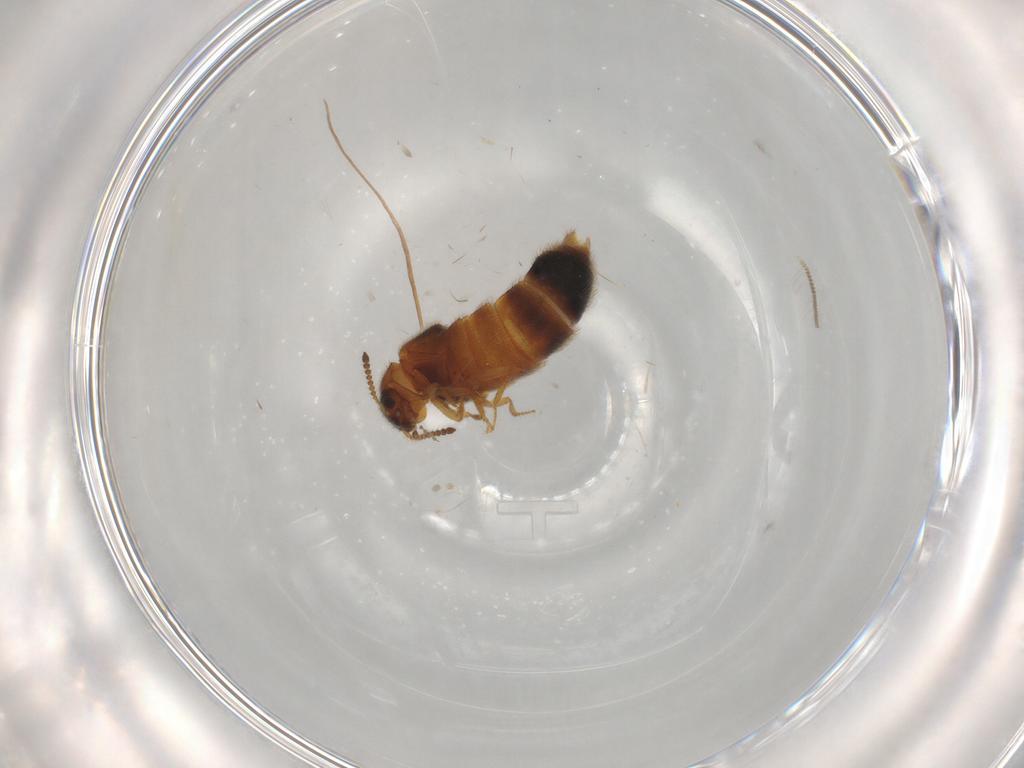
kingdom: Animalia
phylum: Arthropoda
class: Insecta
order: Coleoptera
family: Staphylinidae
